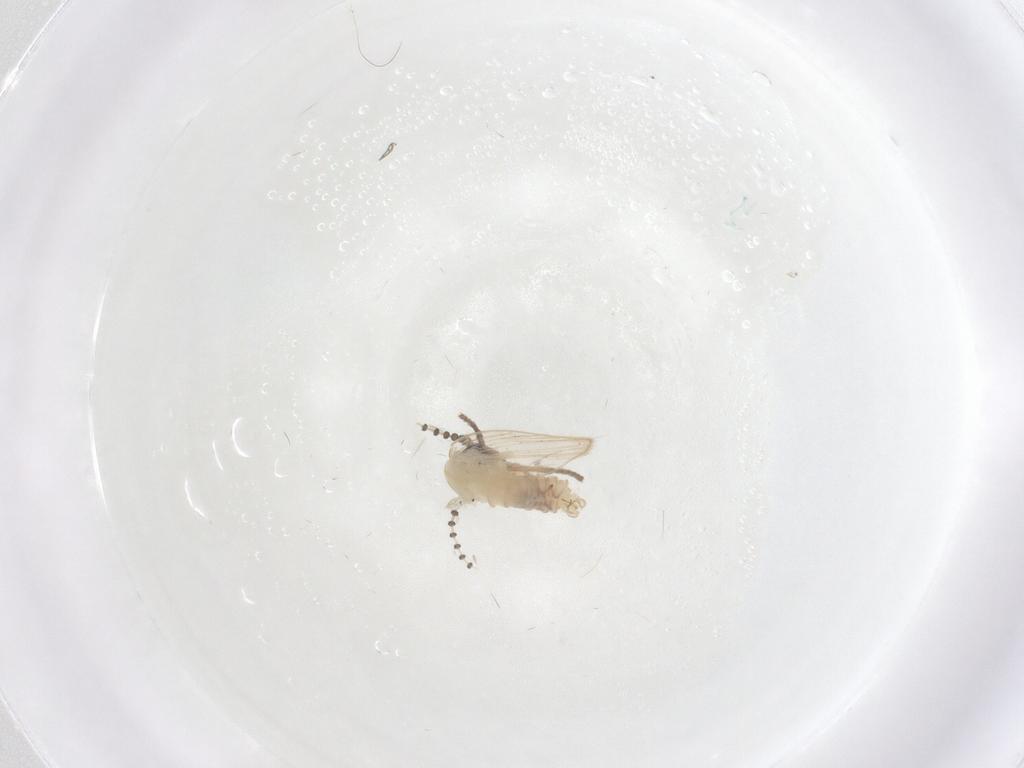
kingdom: Animalia
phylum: Arthropoda
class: Insecta
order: Diptera
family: Psychodidae
